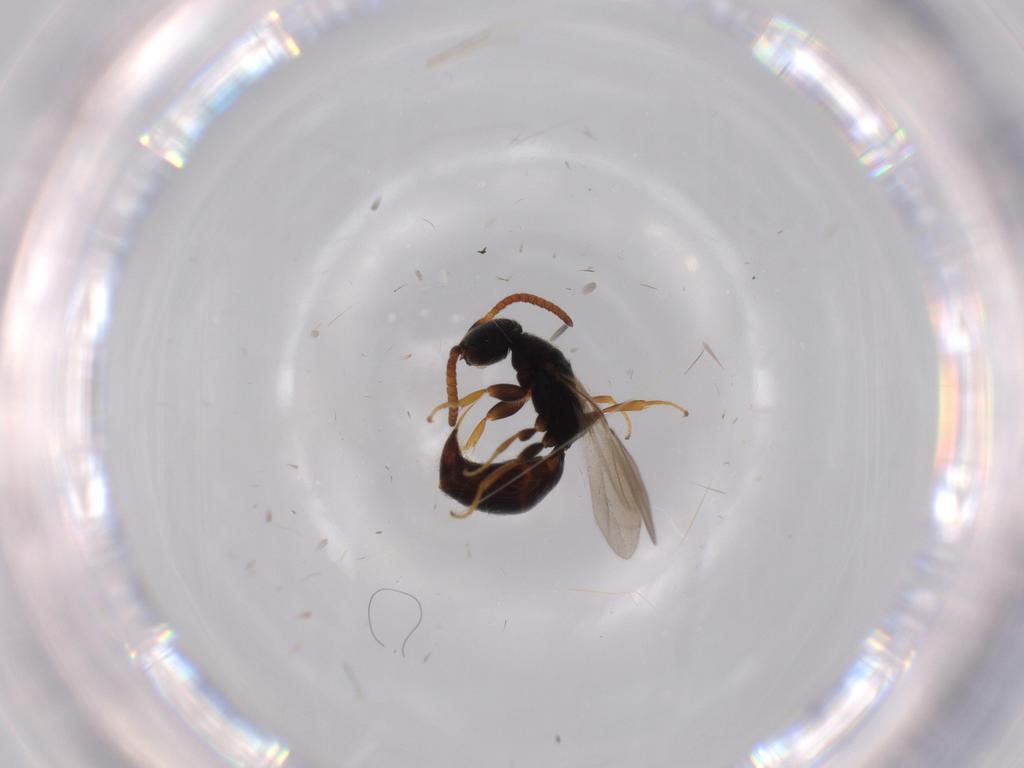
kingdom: Animalia
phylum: Arthropoda
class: Insecta
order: Hymenoptera
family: Bethylidae
